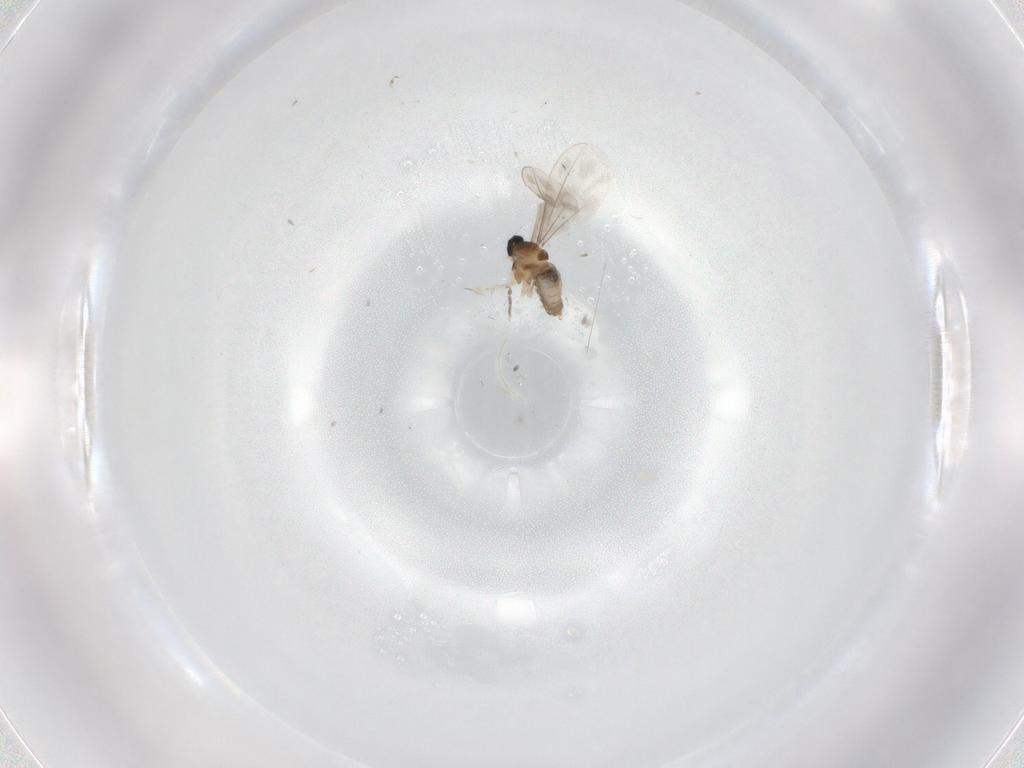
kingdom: Animalia
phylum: Arthropoda
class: Insecta
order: Diptera
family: Cecidomyiidae
